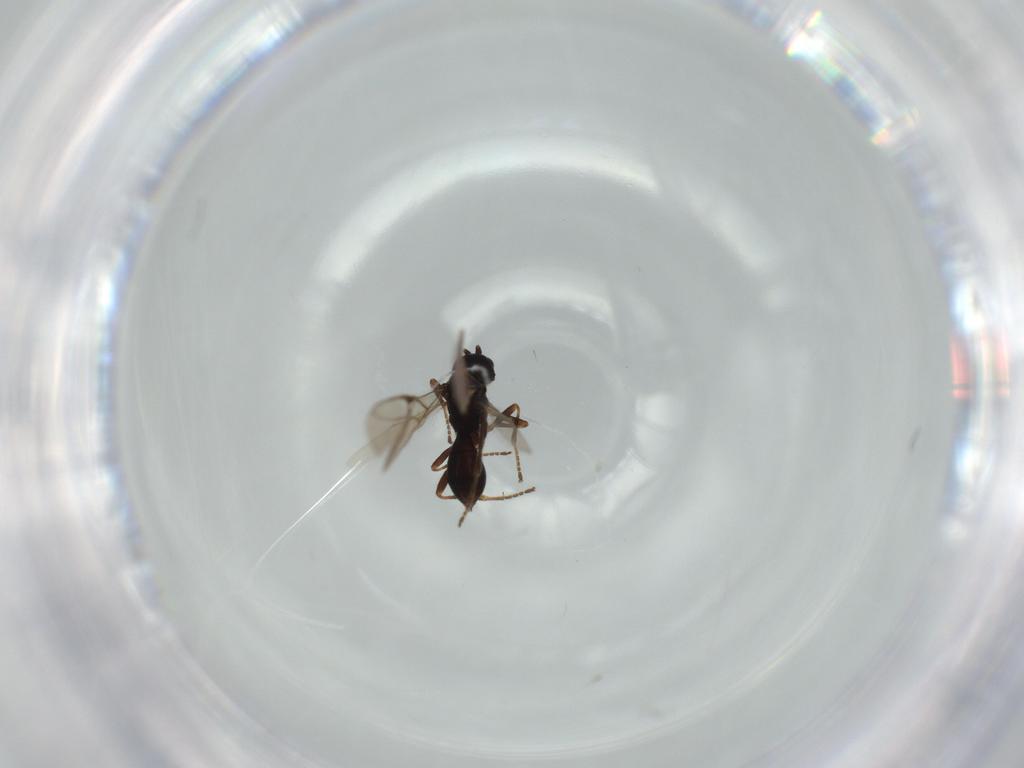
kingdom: Animalia
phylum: Arthropoda
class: Insecta
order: Hymenoptera
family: Braconidae
